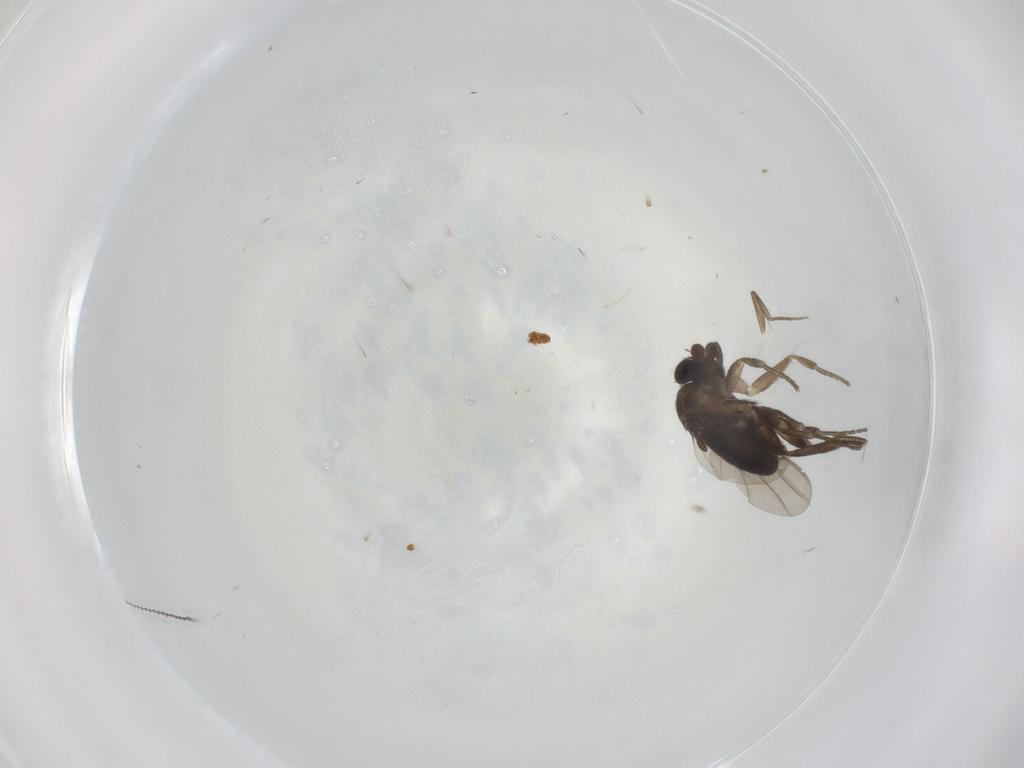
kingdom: Animalia
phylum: Arthropoda
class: Insecta
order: Diptera
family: Phoridae
